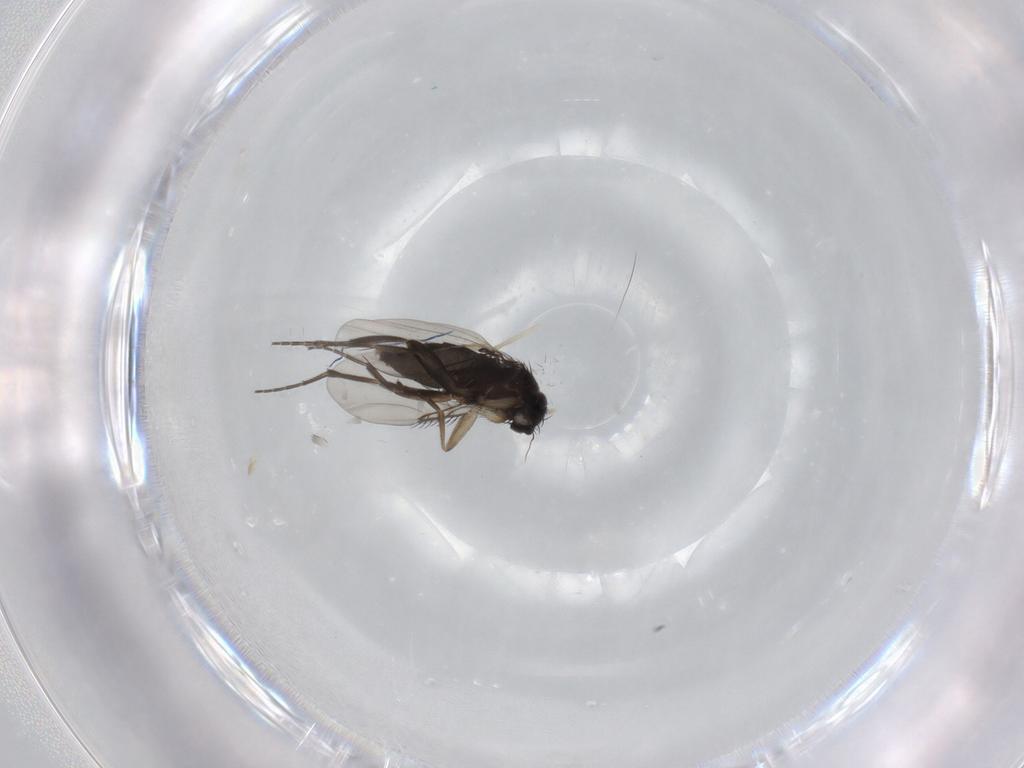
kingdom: Animalia
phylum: Arthropoda
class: Insecta
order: Diptera
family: Phoridae
